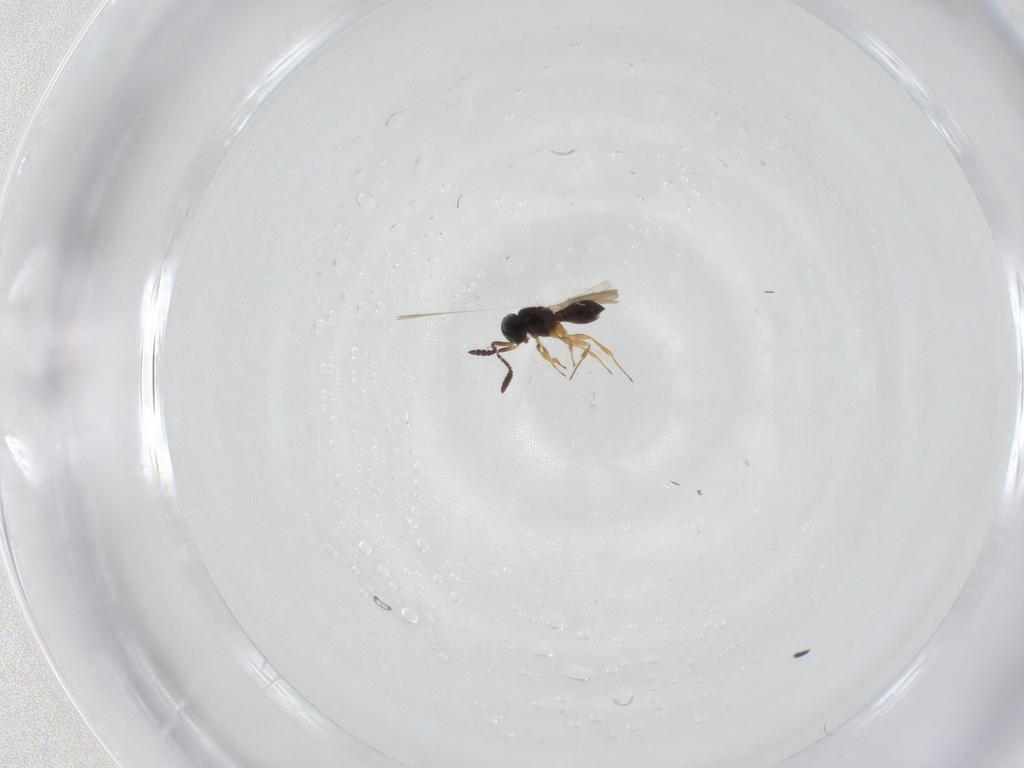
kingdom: Animalia
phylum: Arthropoda
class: Insecta
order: Hymenoptera
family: Scelionidae
